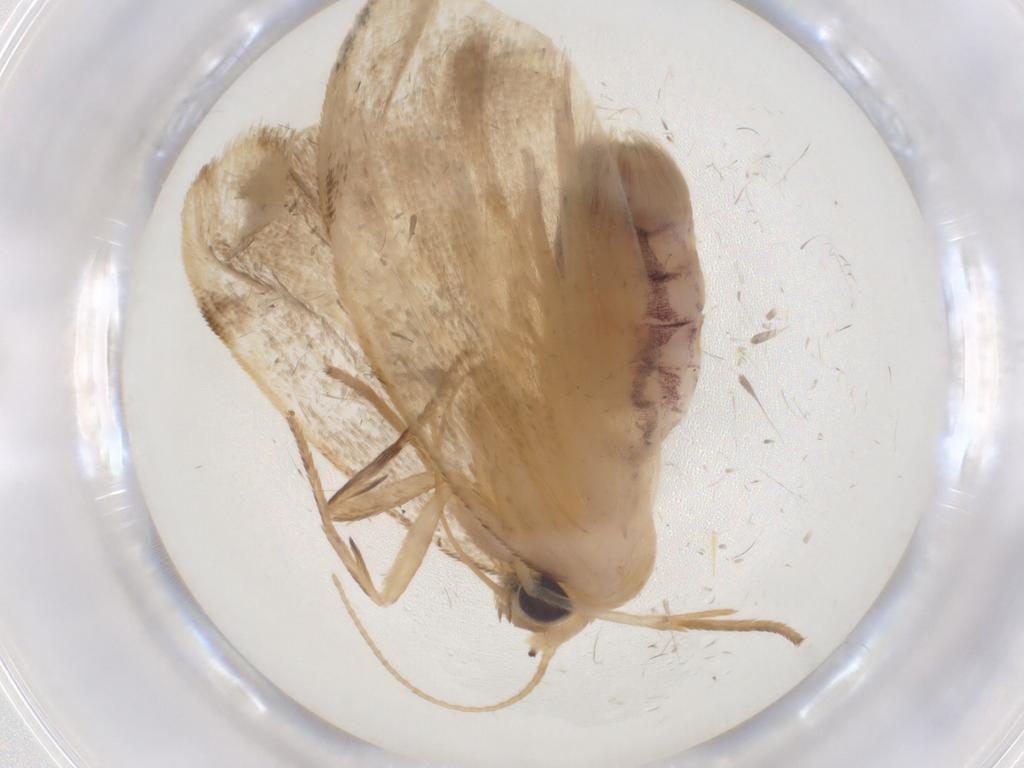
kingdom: Animalia
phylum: Arthropoda
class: Insecta
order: Lepidoptera
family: Erebidae
